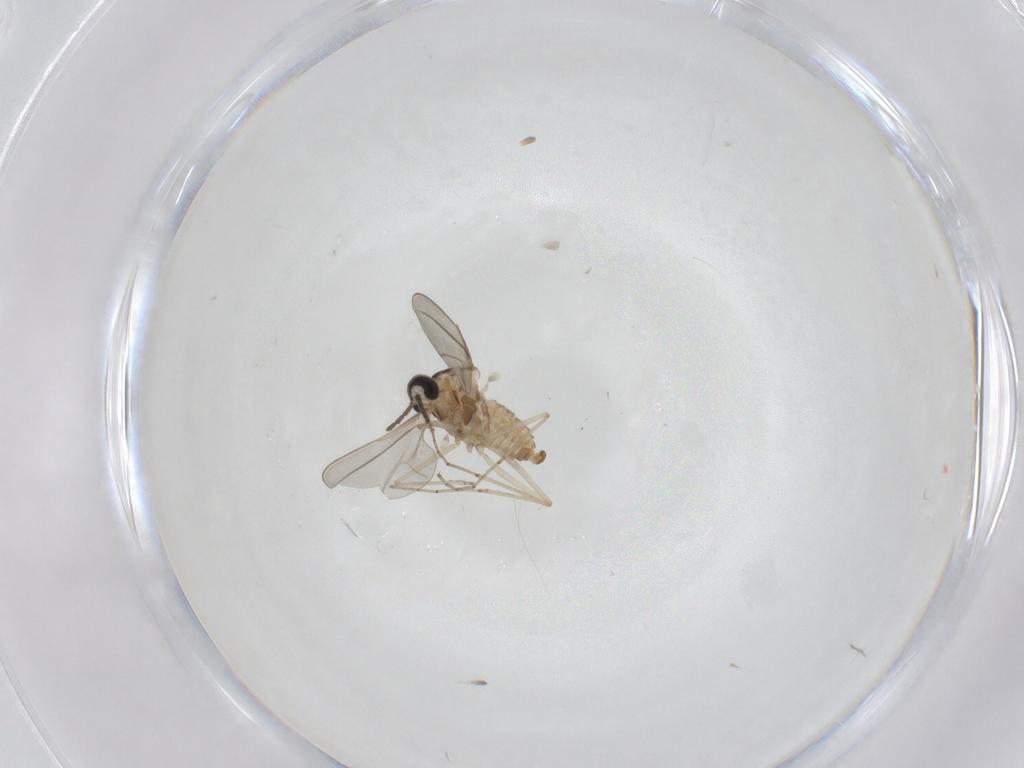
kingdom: Animalia
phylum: Arthropoda
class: Insecta
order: Diptera
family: Cecidomyiidae
